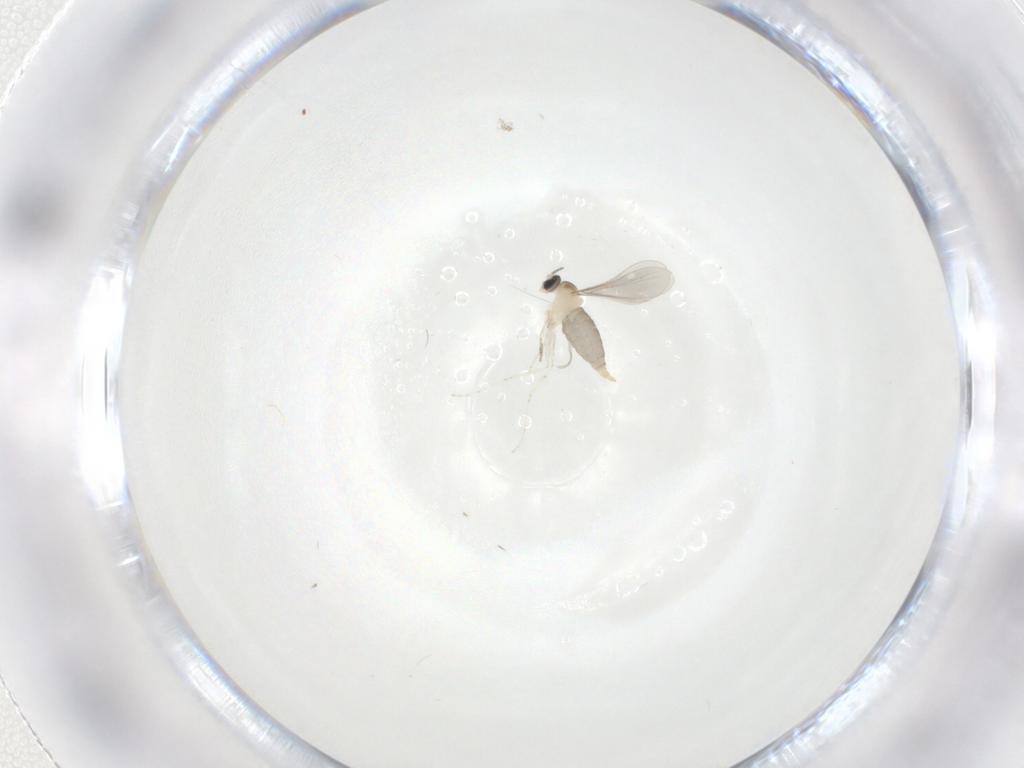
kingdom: Animalia
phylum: Arthropoda
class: Insecta
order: Diptera
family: Cecidomyiidae
